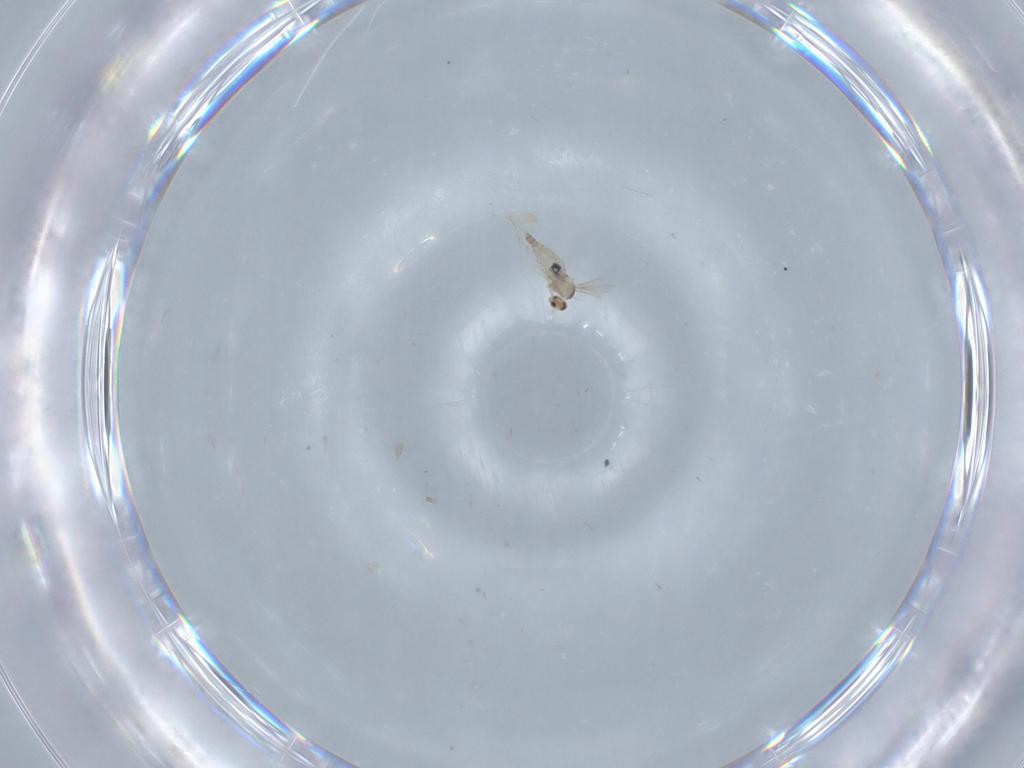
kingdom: Animalia
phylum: Arthropoda
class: Insecta
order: Diptera
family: Cecidomyiidae
